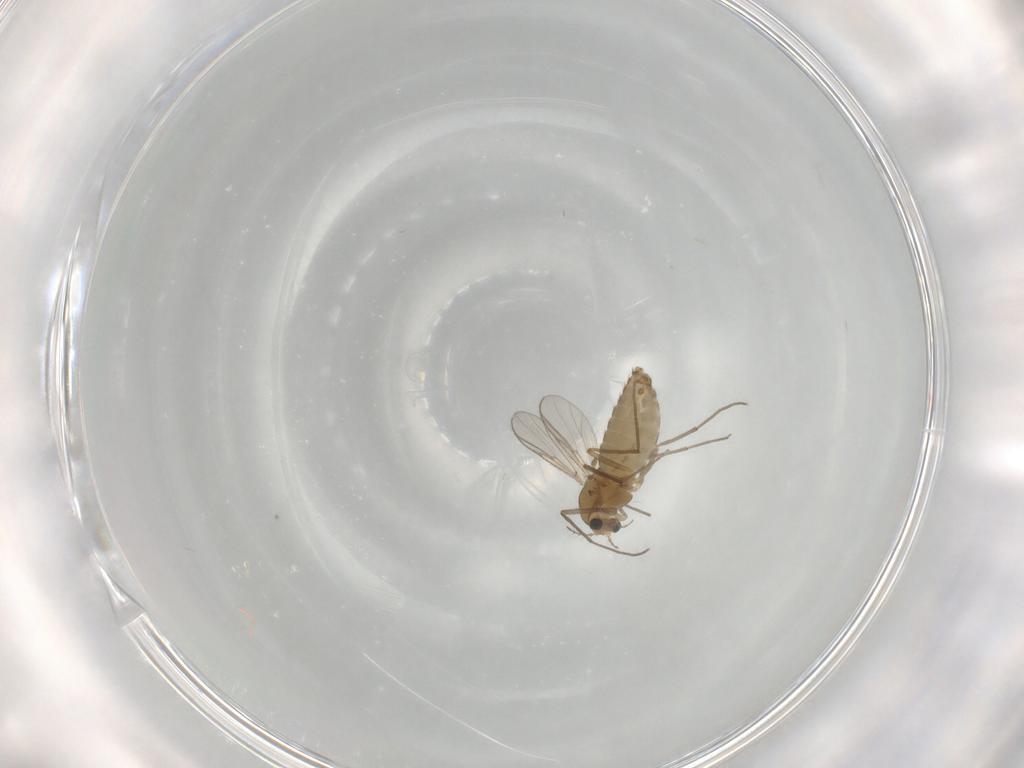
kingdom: Animalia
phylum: Arthropoda
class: Insecta
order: Diptera
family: Chironomidae
